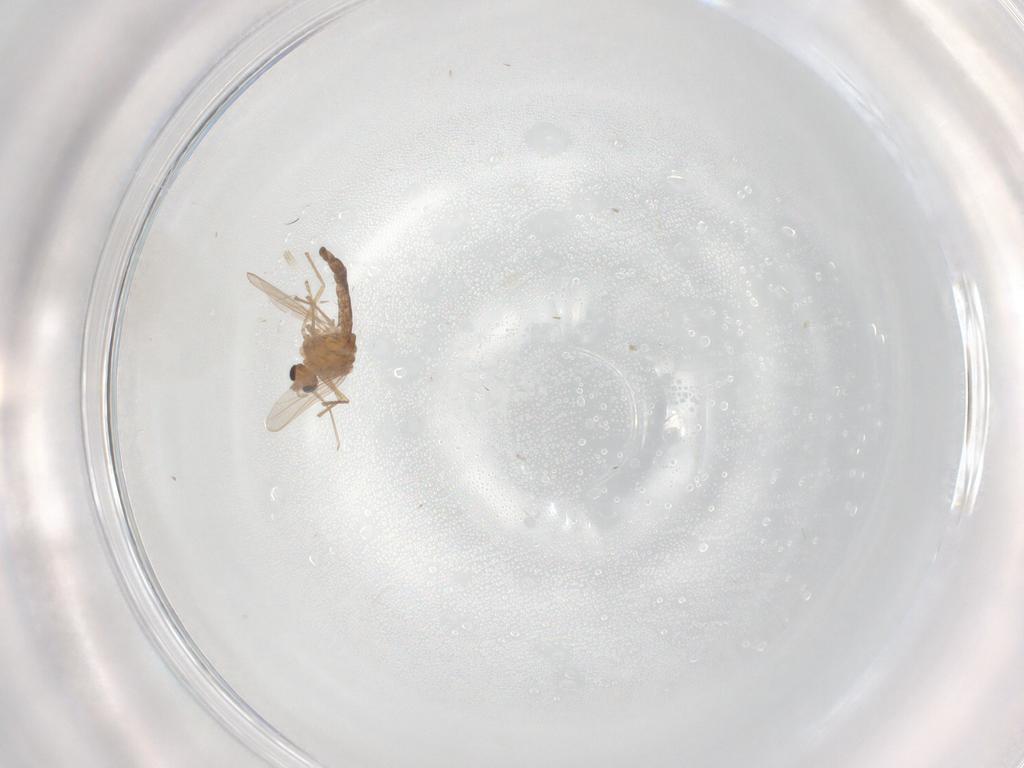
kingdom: Animalia
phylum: Arthropoda
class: Insecta
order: Diptera
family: Chironomidae
